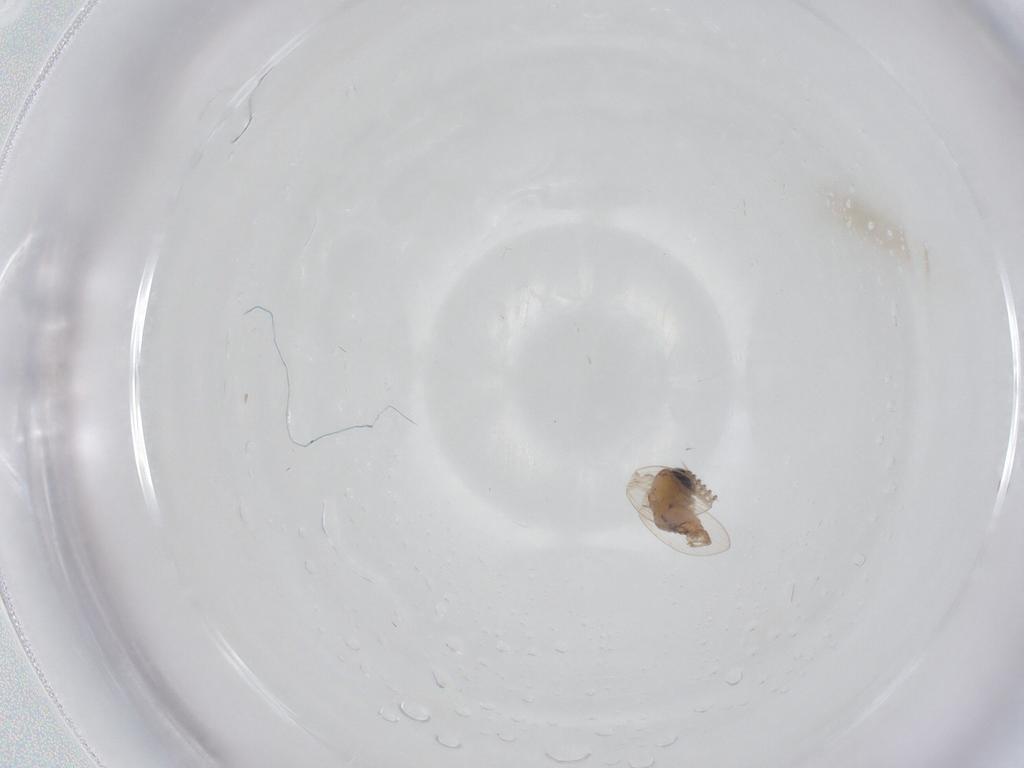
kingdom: Animalia
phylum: Arthropoda
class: Insecta
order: Diptera
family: Psychodidae
